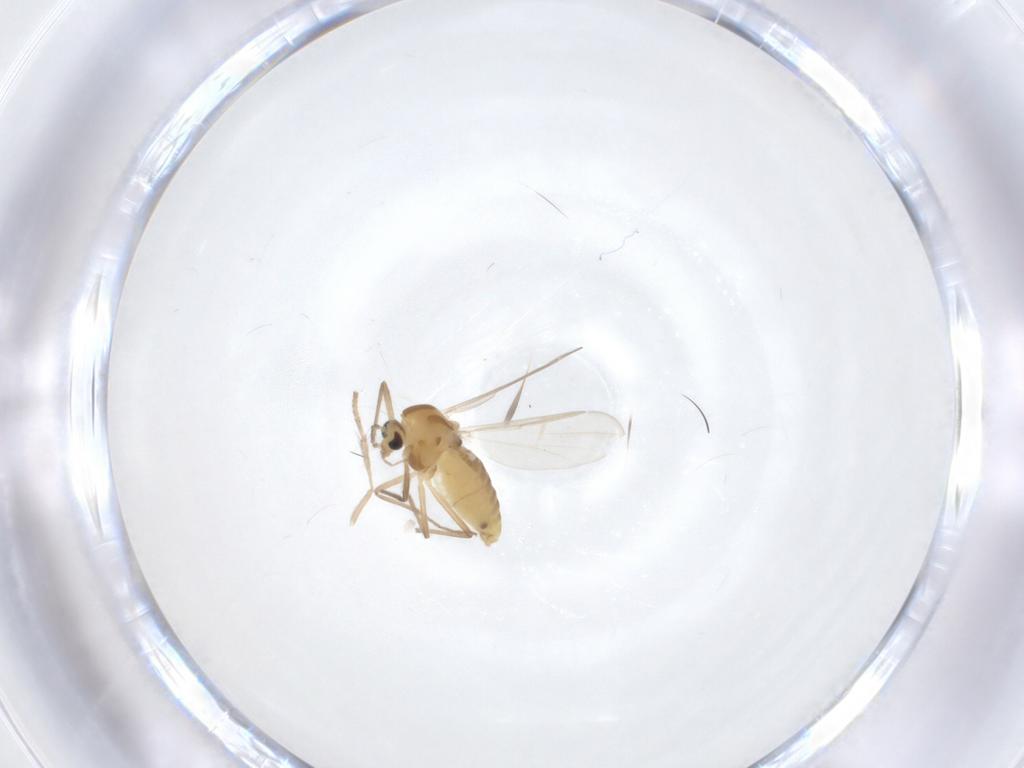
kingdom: Animalia
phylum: Arthropoda
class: Insecta
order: Diptera
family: Chironomidae
